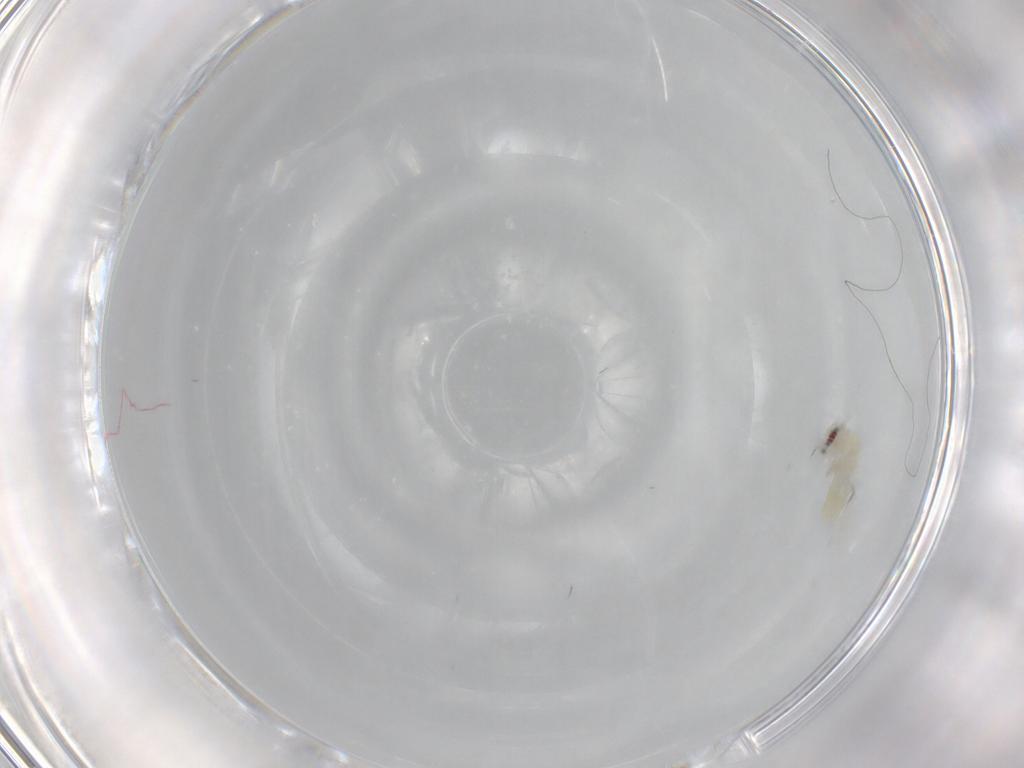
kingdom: Animalia
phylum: Arthropoda
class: Insecta
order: Hemiptera
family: Aleyrodidae
